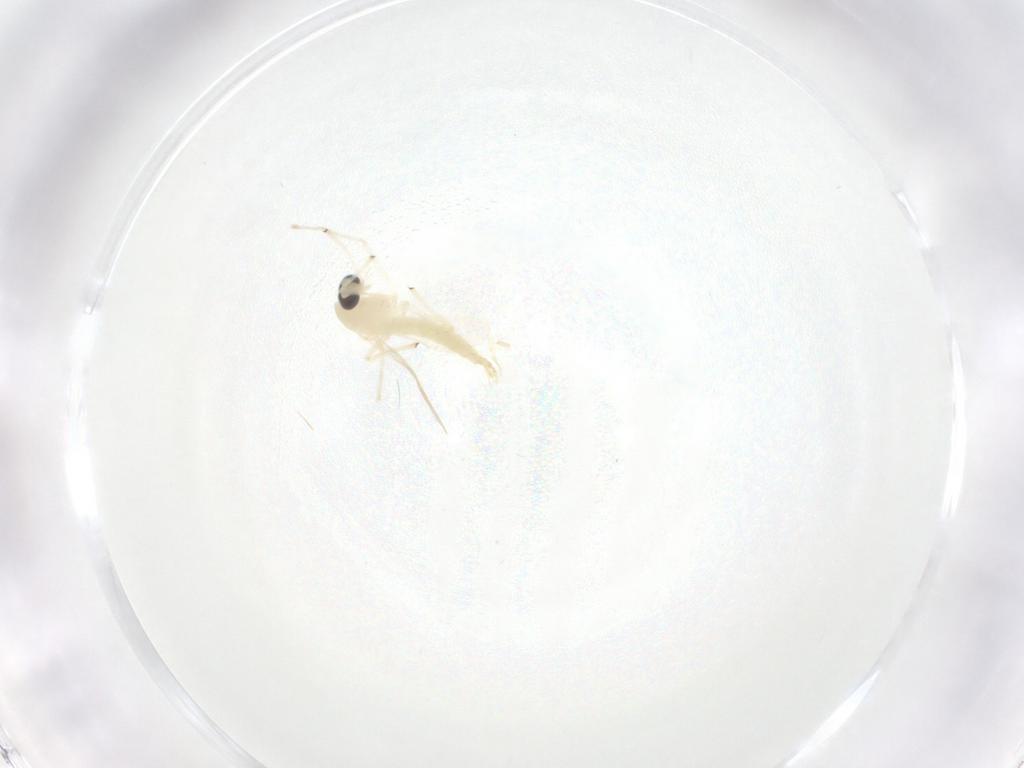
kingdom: Animalia
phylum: Arthropoda
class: Insecta
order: Diptera
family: Chironomidae
